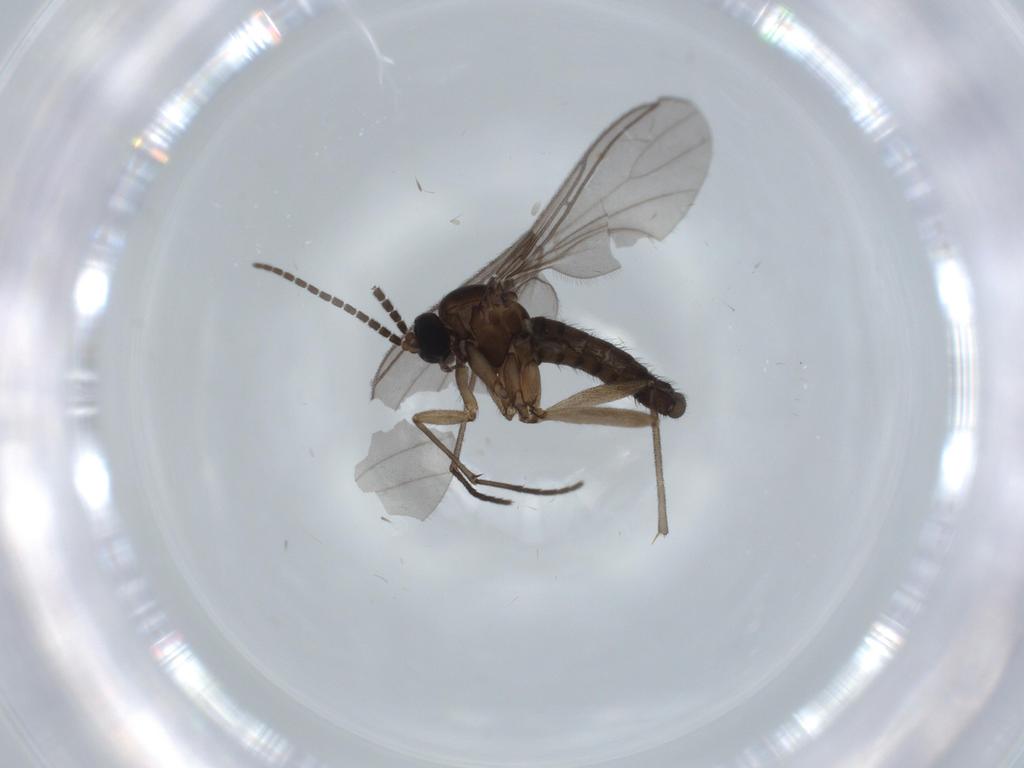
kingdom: Animalia
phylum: Arthropoda
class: Insecta
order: Diptera
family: Sciaridae
